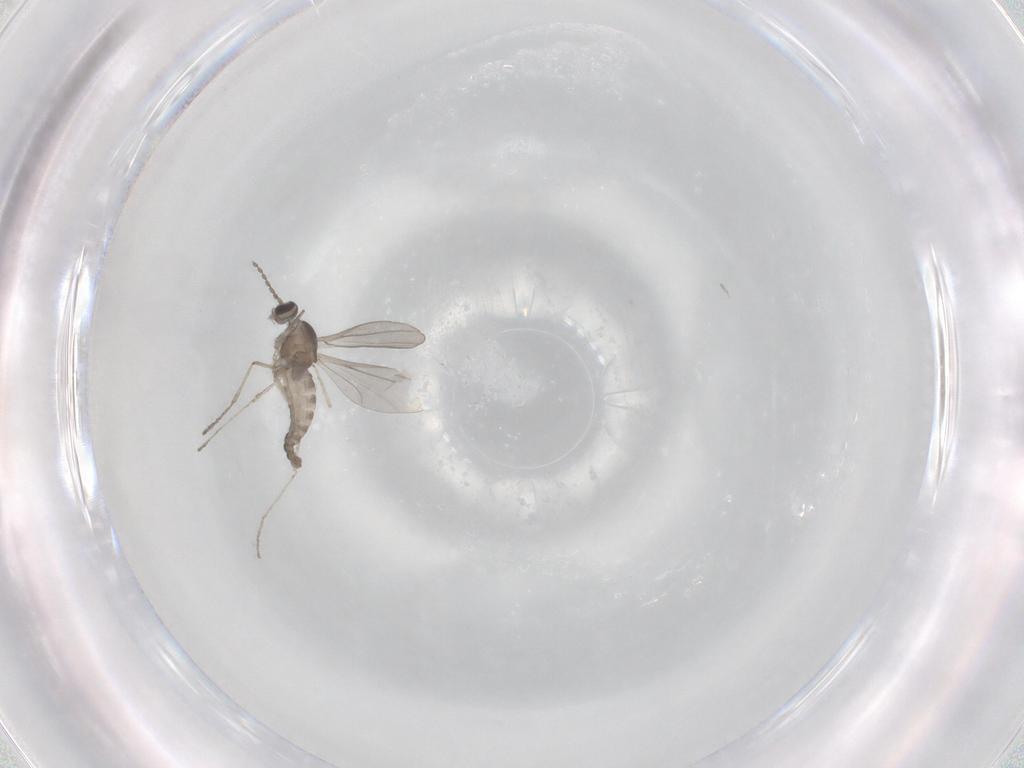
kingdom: Animalia
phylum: Arthropoda
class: Insecta
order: Diptera
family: Cecidomyiidae
